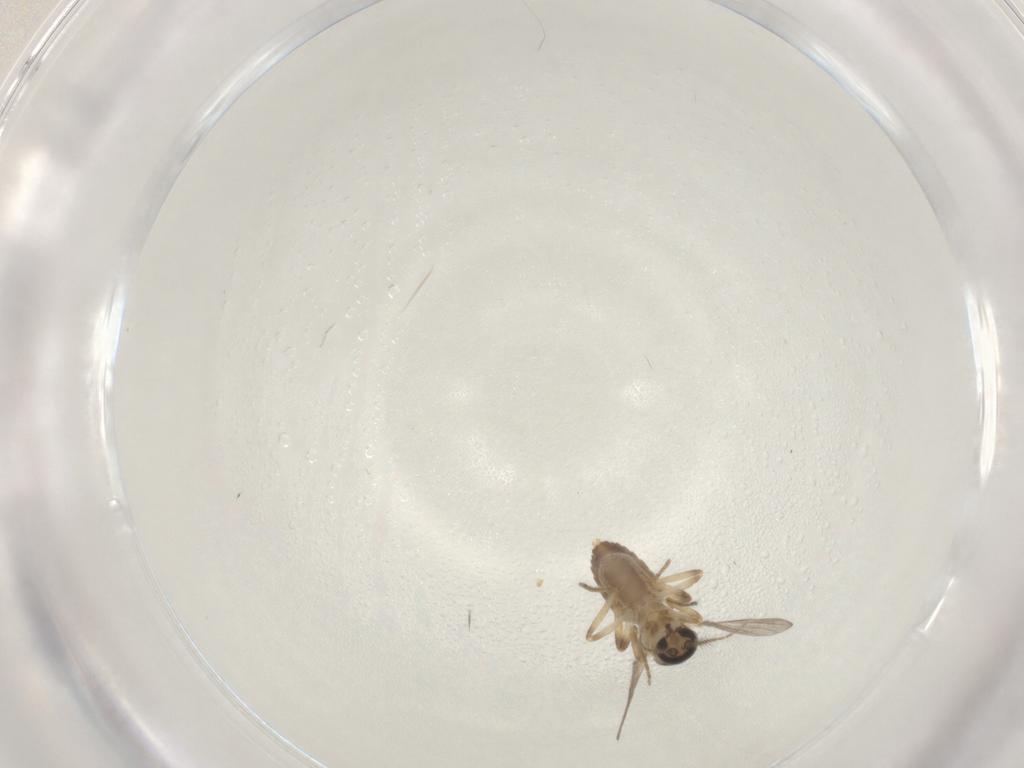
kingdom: Animalia
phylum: Arthropoda
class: Insecta
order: Diptera
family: Ceratopogonidae
